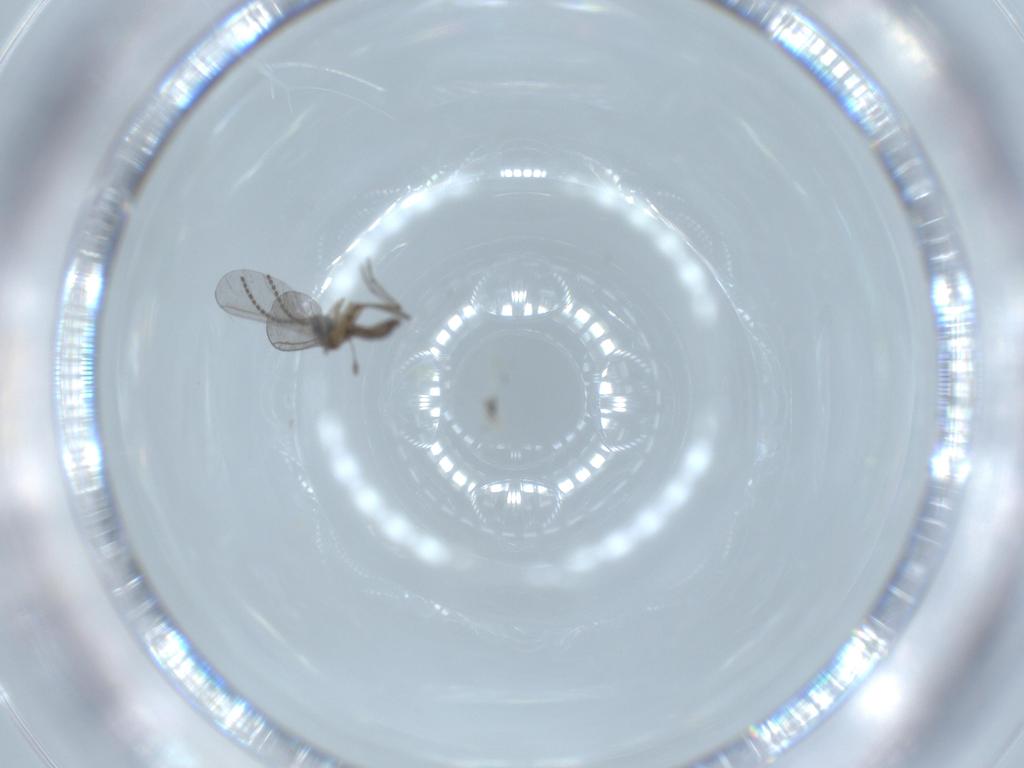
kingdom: Animalia
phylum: Arthropoda
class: Insecta
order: Diptera
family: Sciaridae
